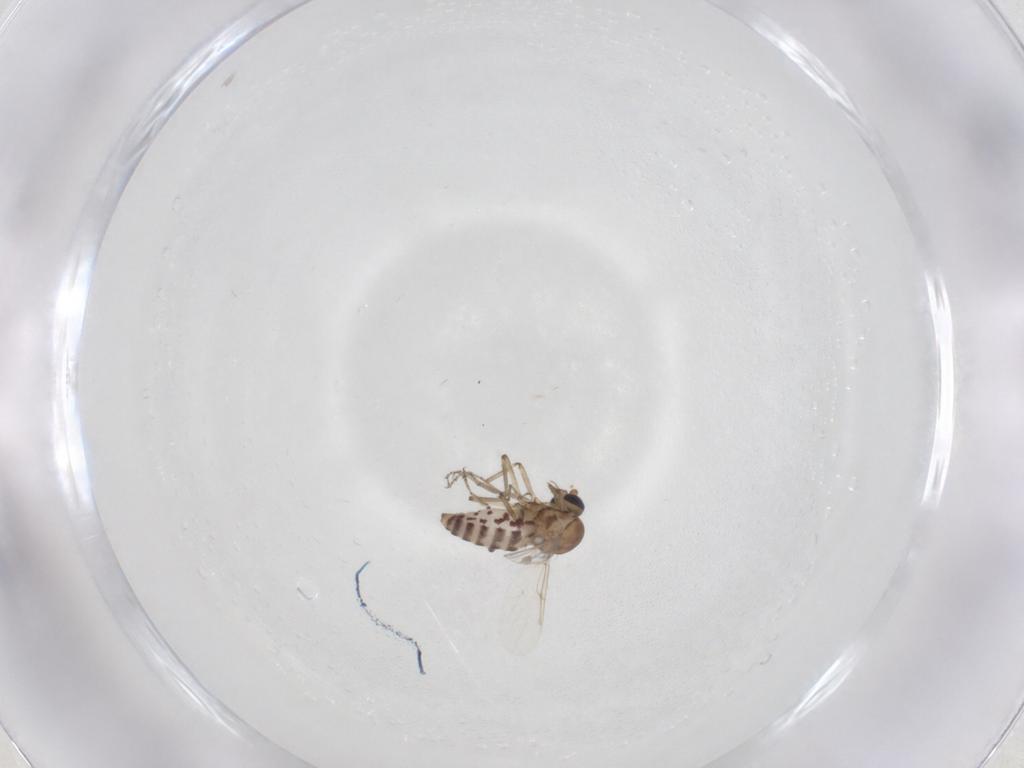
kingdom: Animalia
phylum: Arthropoda
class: Insecta
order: Diptera
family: Ceratopogonidae
